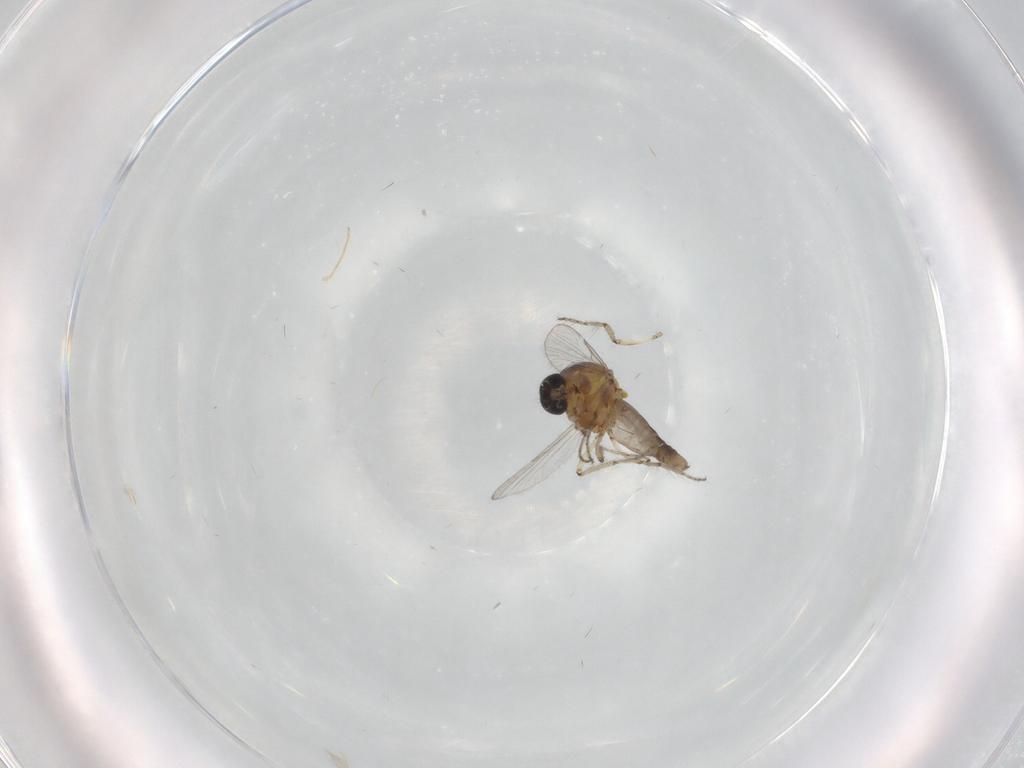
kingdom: Animalia
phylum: Arthropoda
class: Insecta
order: Diptera
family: Ceratopogonidae
